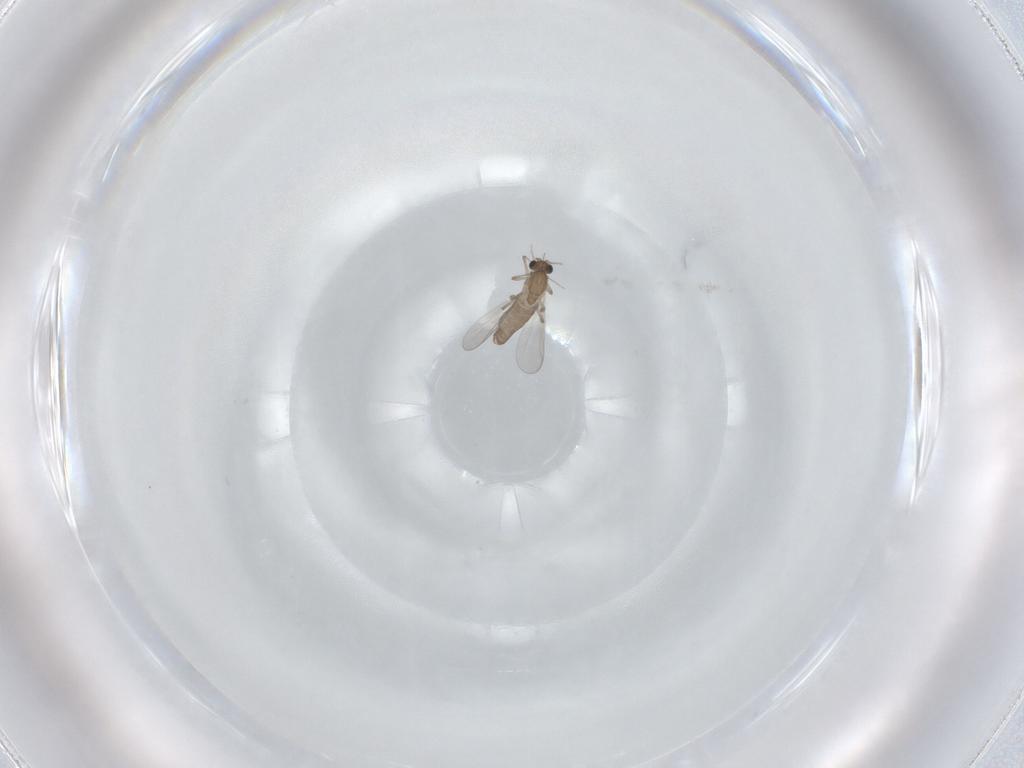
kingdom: Animalia
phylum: Arthropoda
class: Insecta
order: Diptera
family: Chironomidae
